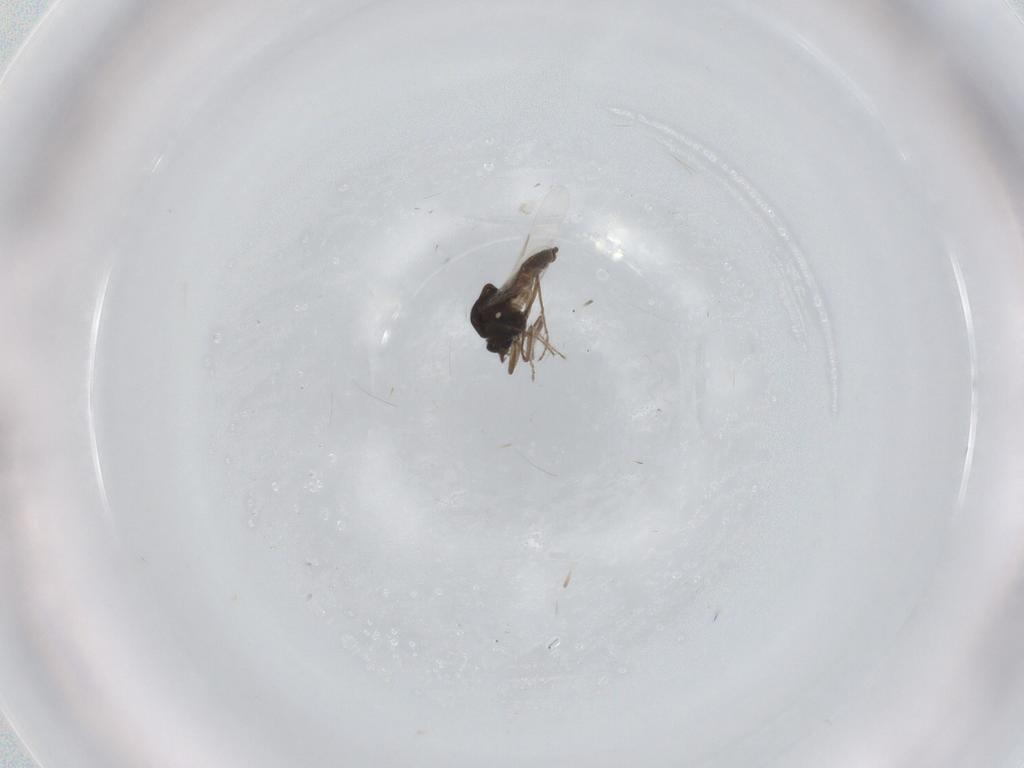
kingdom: Animalia
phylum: Arthropoda
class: Insecta
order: Diptera
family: Ceratopogonidae
